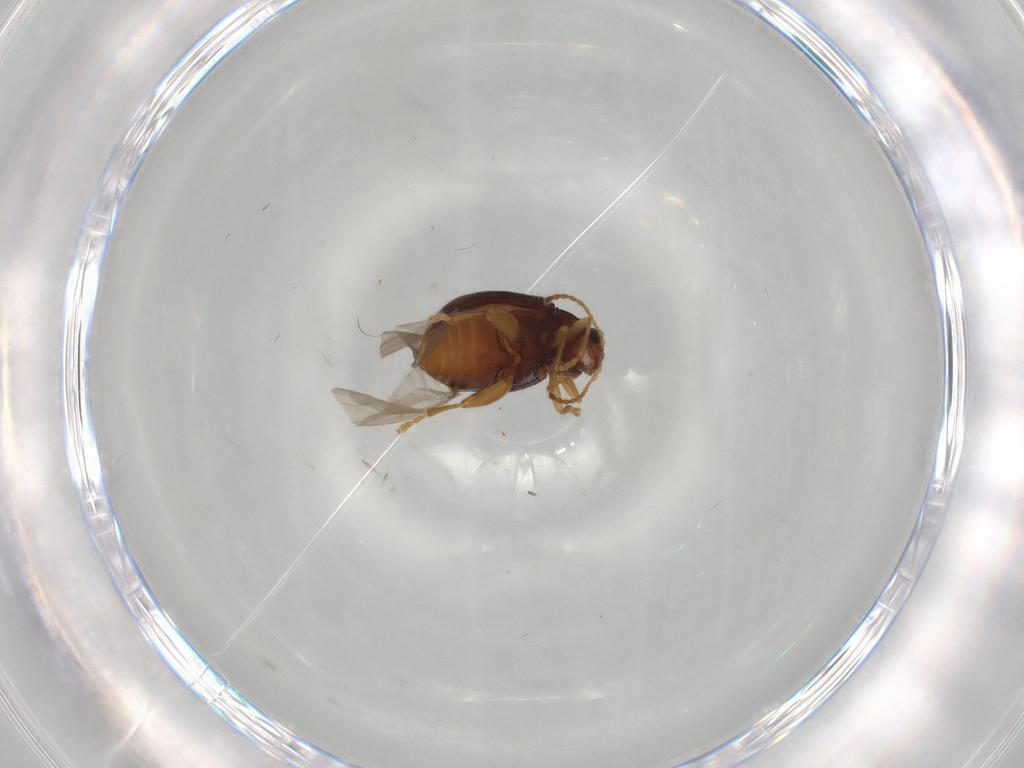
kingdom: Animalia
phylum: Arthropoda
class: Insecta
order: Coleoptera
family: Chrysomelidae
